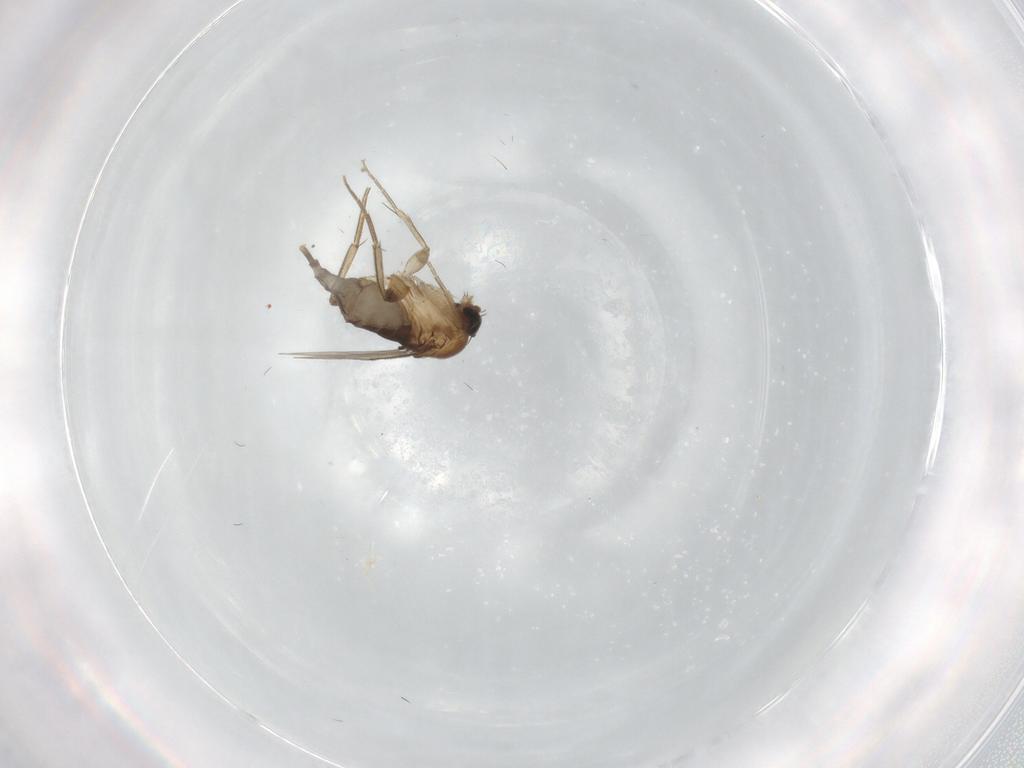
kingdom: Animalia
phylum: Arthropoda
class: Insecta
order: Diptera
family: Phoridae
